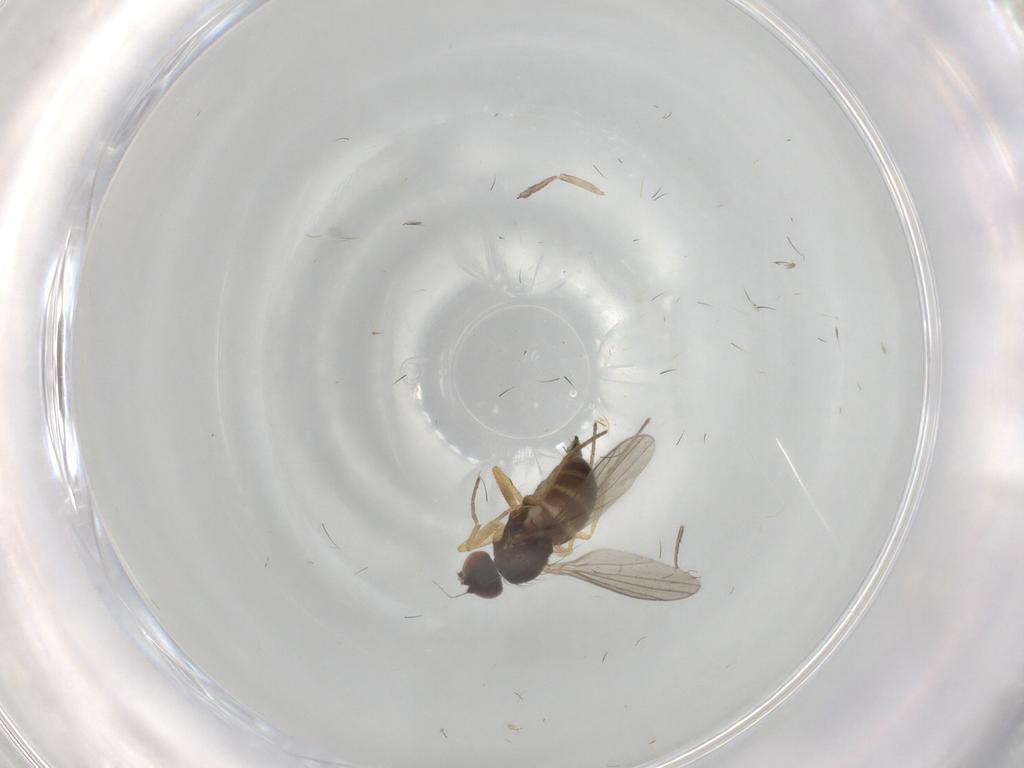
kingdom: Animalia
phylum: Arthropoda
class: Insecta
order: Diptera
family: Psychodidae
